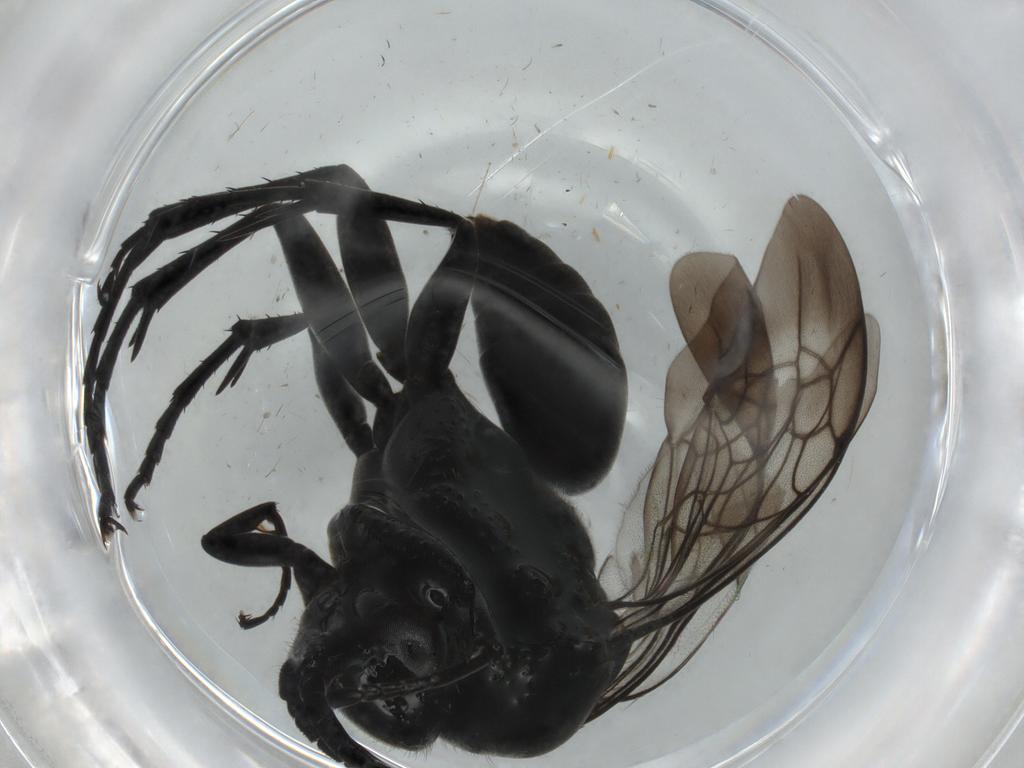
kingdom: Animalia
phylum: Arthropoda
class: Insecta
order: Hymenoptera
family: Pompilidae
